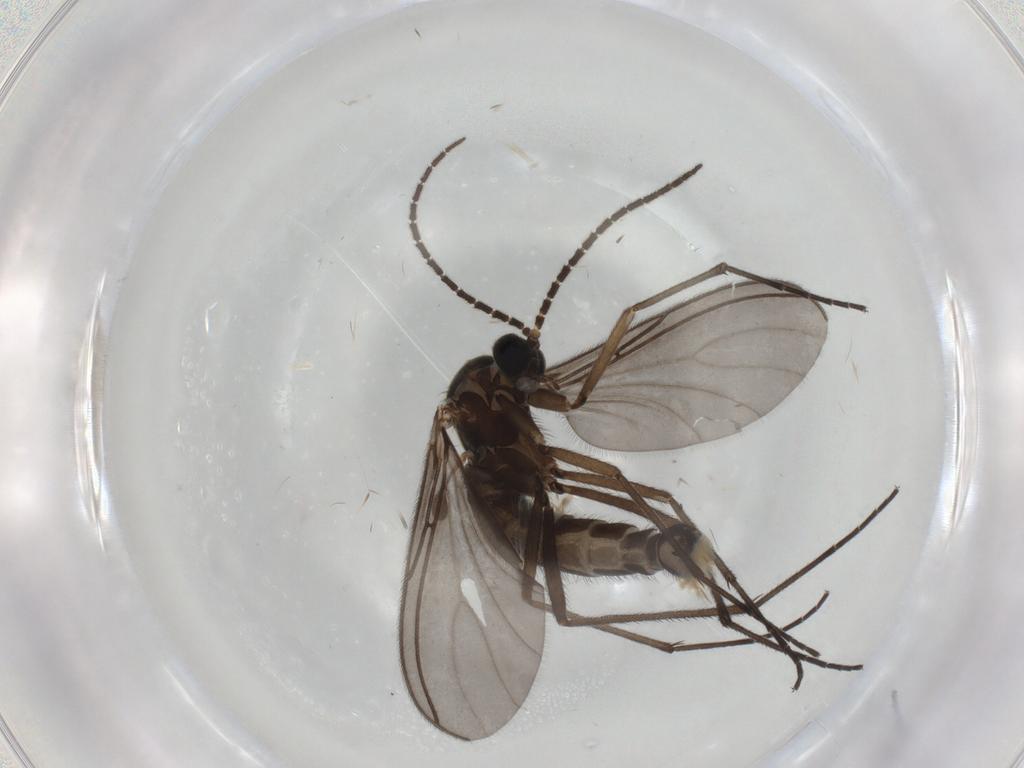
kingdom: Animalia
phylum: Arthropoda
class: Insecta
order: Diptera
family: Sciaridae
